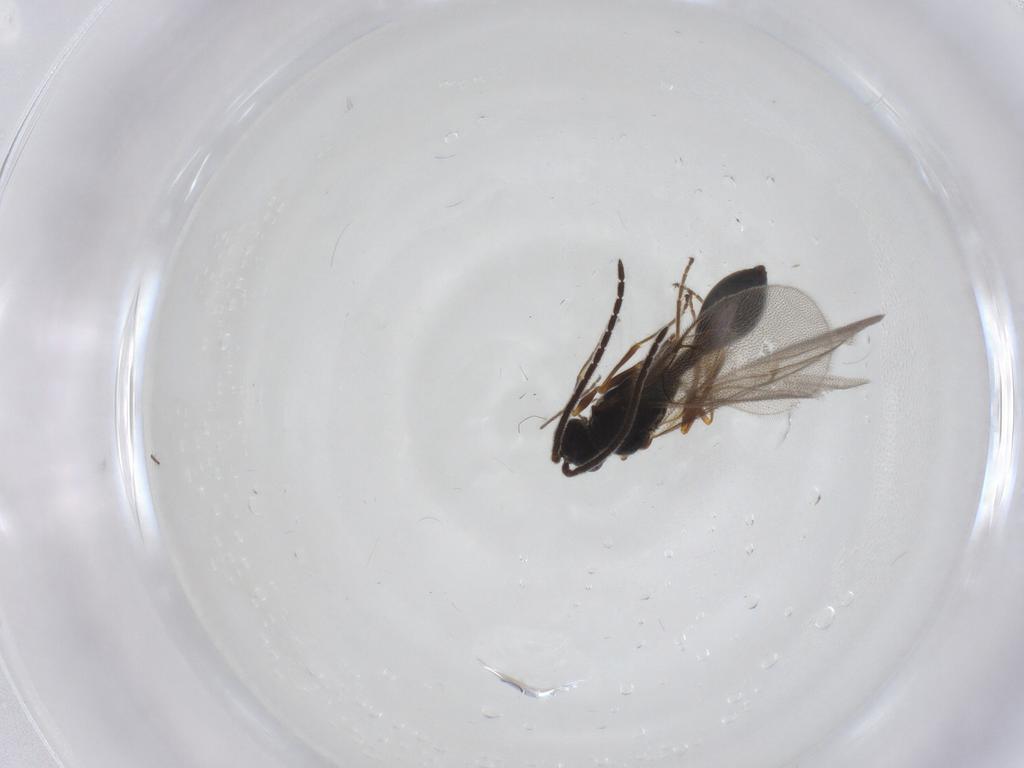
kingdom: Animalia
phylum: Arthropoda
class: Insecta
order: Hymenoptera
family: Diapriidae
